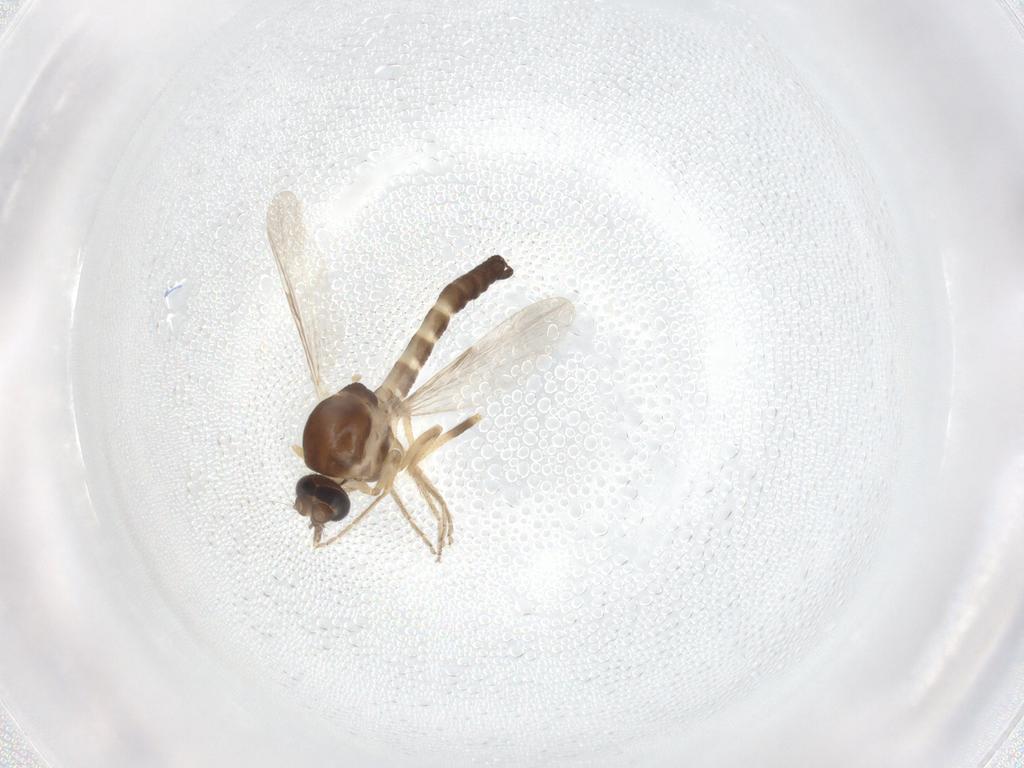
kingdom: Animalia
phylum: Arthropoda
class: Insecta
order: Diptera
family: Ceratopogonidae
